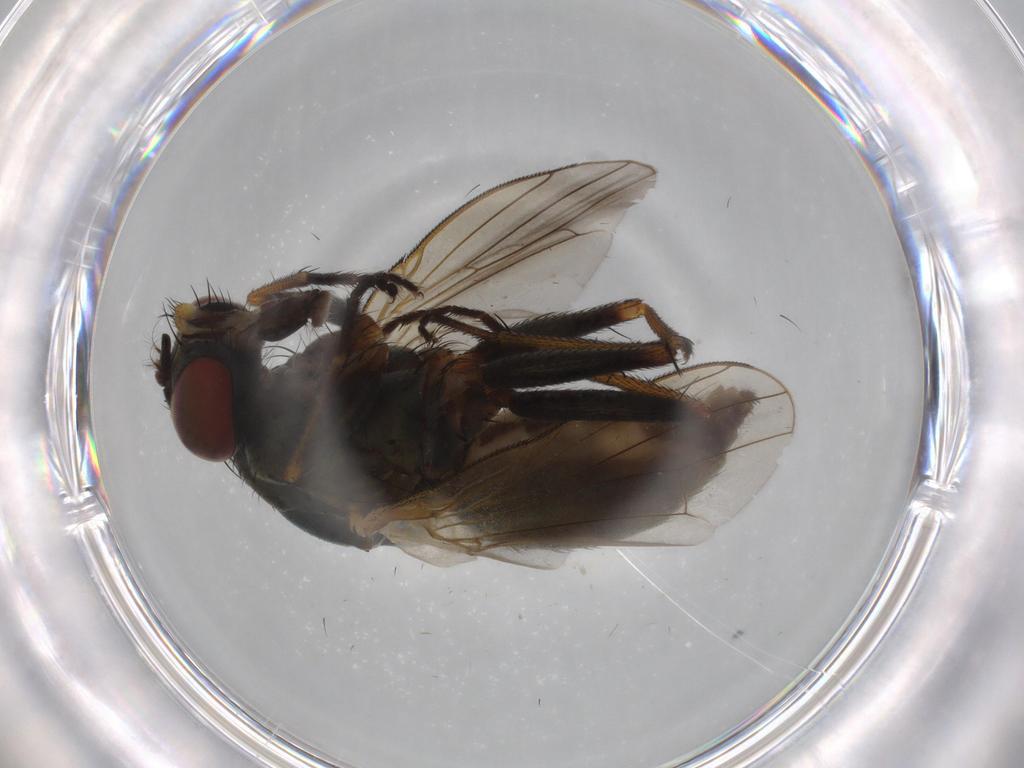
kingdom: Animalia
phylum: Arthropoda
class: Insecta
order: Diptera
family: Muscidae
